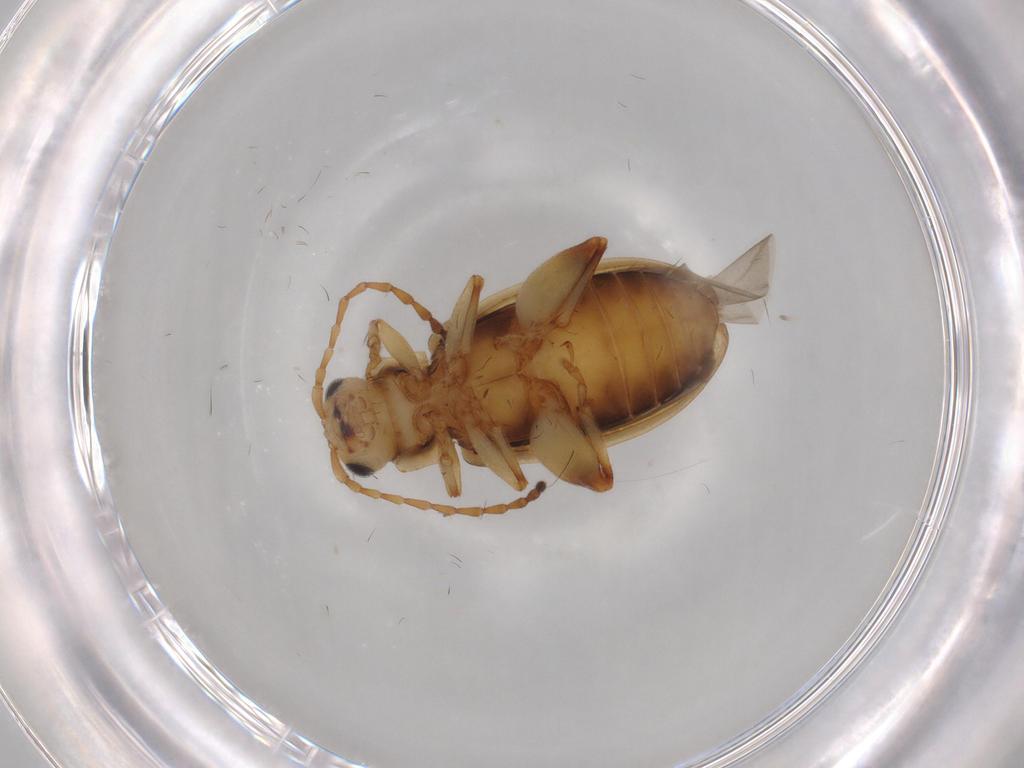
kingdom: Animalia
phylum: Arthropoda
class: Insecta
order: Coleoptera
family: Chrysomelidae
